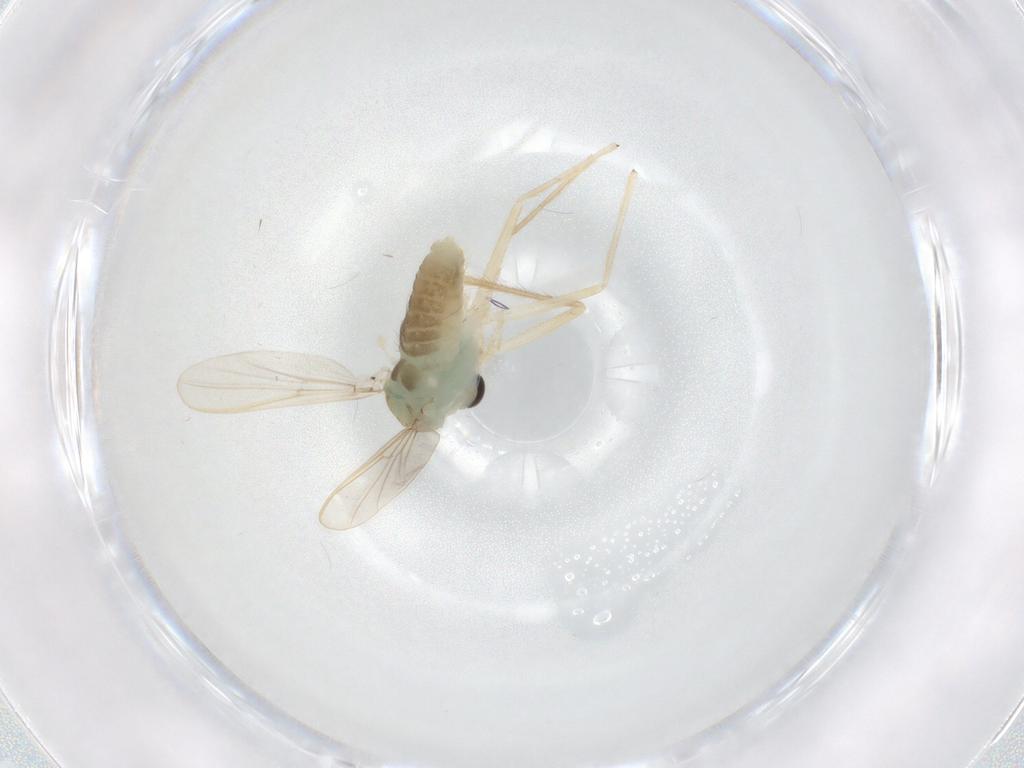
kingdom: Animalia
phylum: Arthropoda
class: Insecta
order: Diptera
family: Chironomidae
